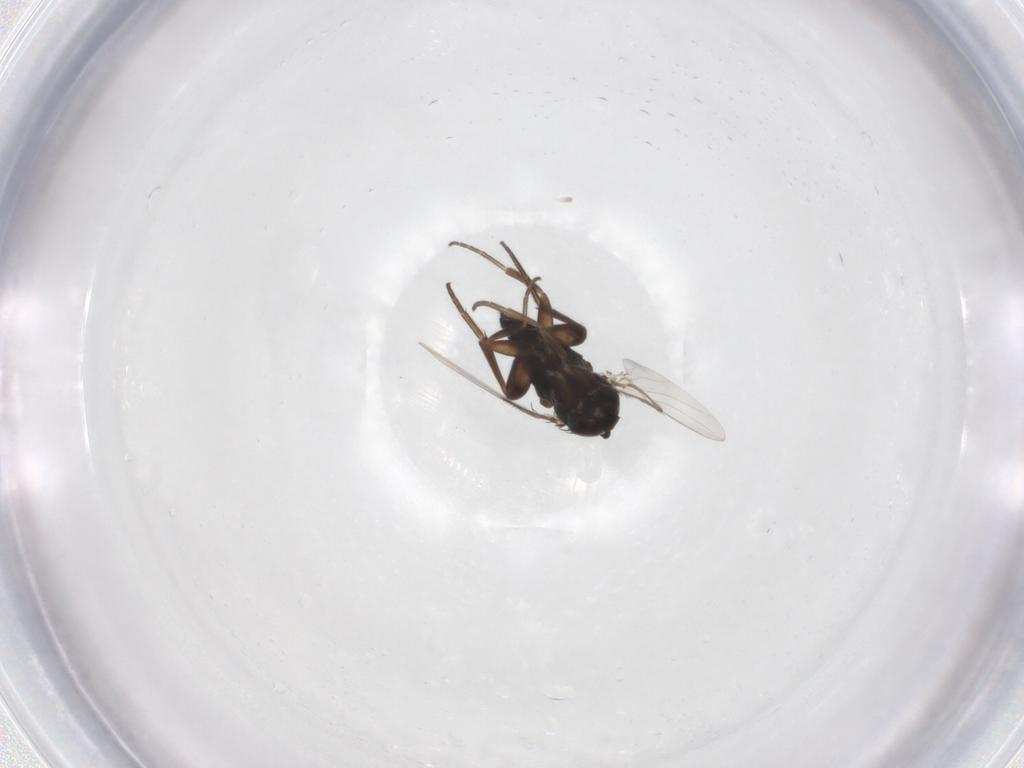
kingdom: Animalia
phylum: Arthropoda
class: Insecta
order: Diptera
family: Phoridae
